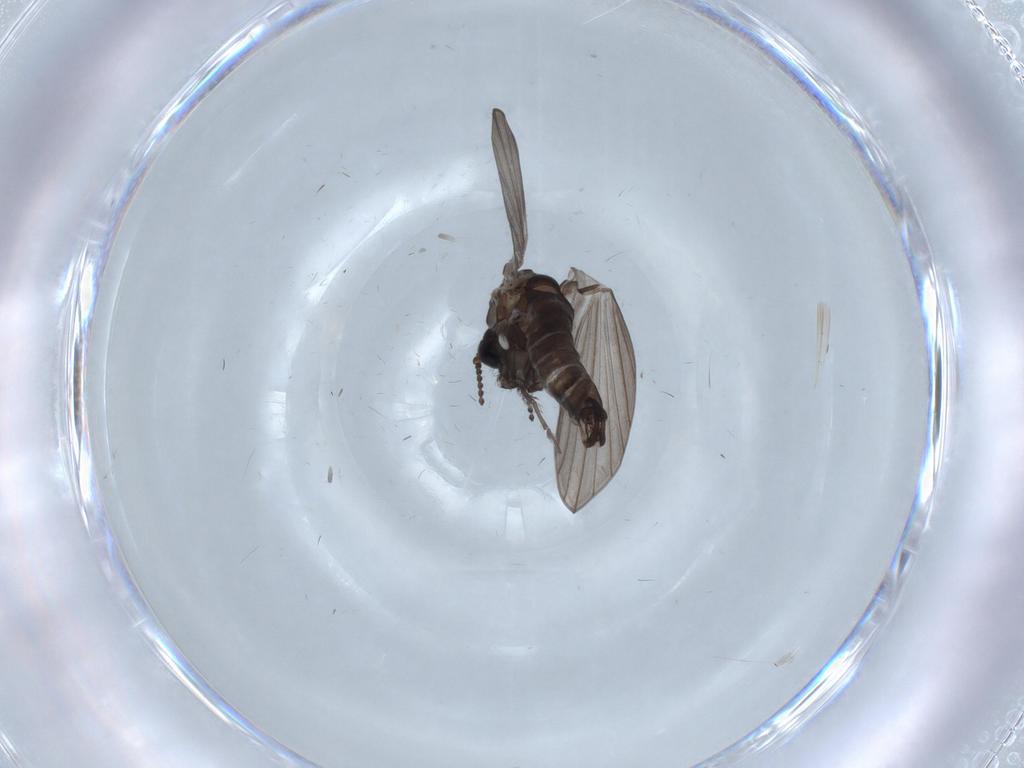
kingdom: Animalia
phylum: Arthropoda
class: Insecta
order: Diptera
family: Psychodidae
